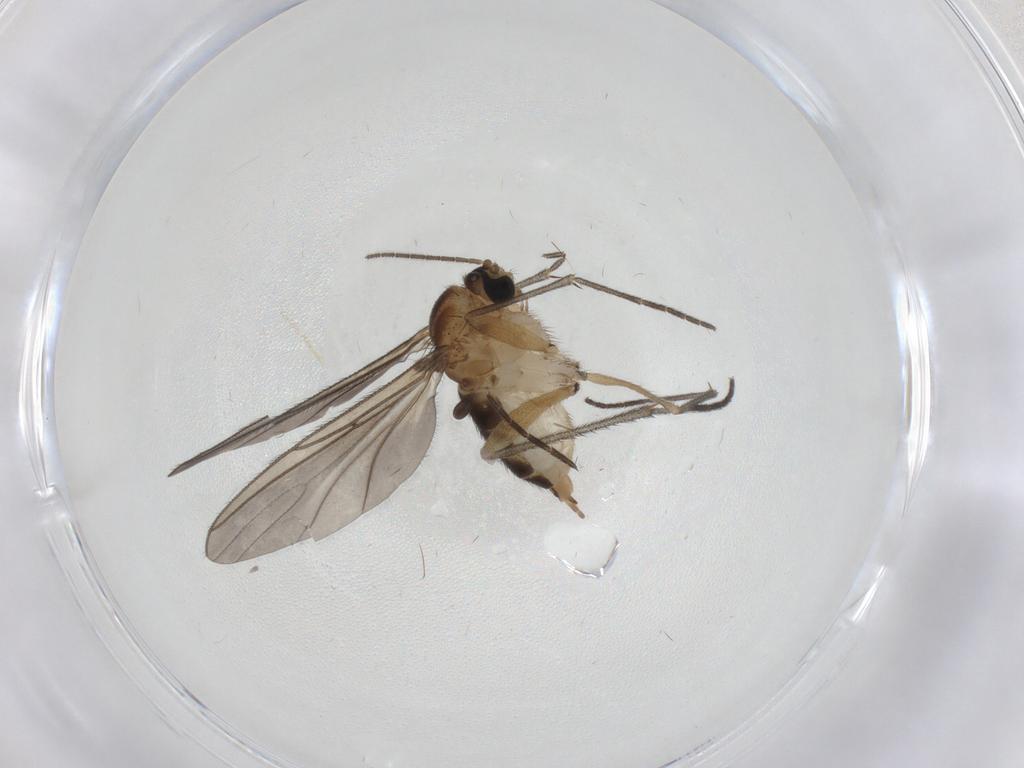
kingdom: Animalia
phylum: Arthropoda
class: Insecta
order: Diptera
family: Sciaridae
